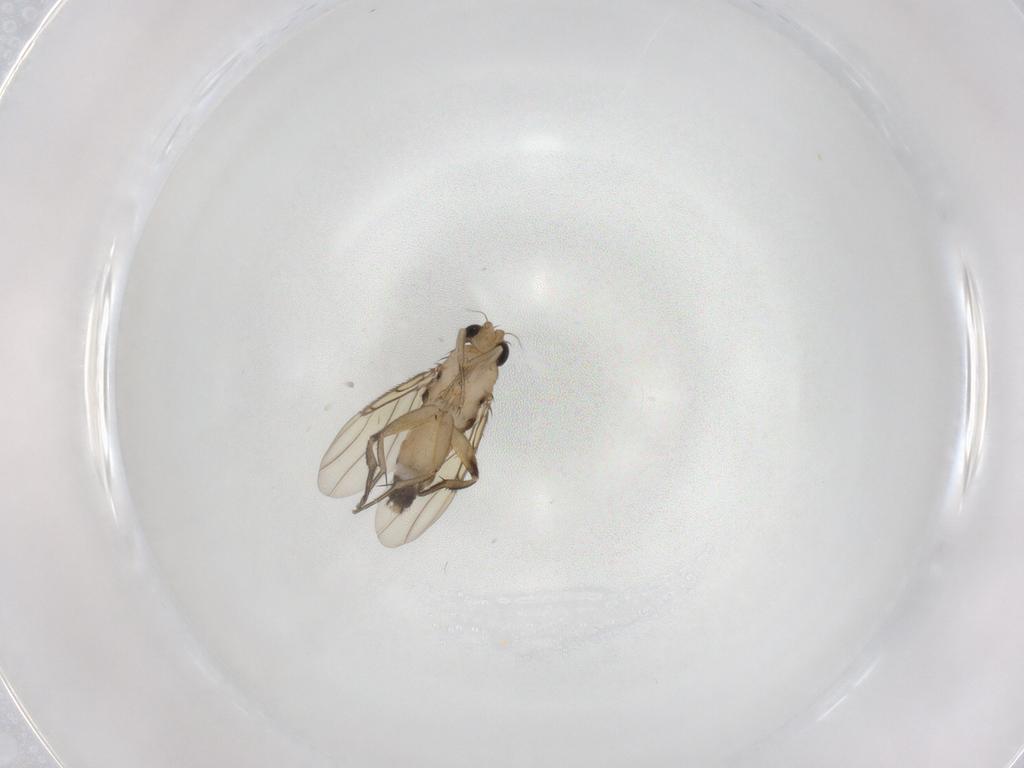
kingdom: Animalia
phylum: Arthropoda
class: Insecta
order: Diptera
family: Phoridae
